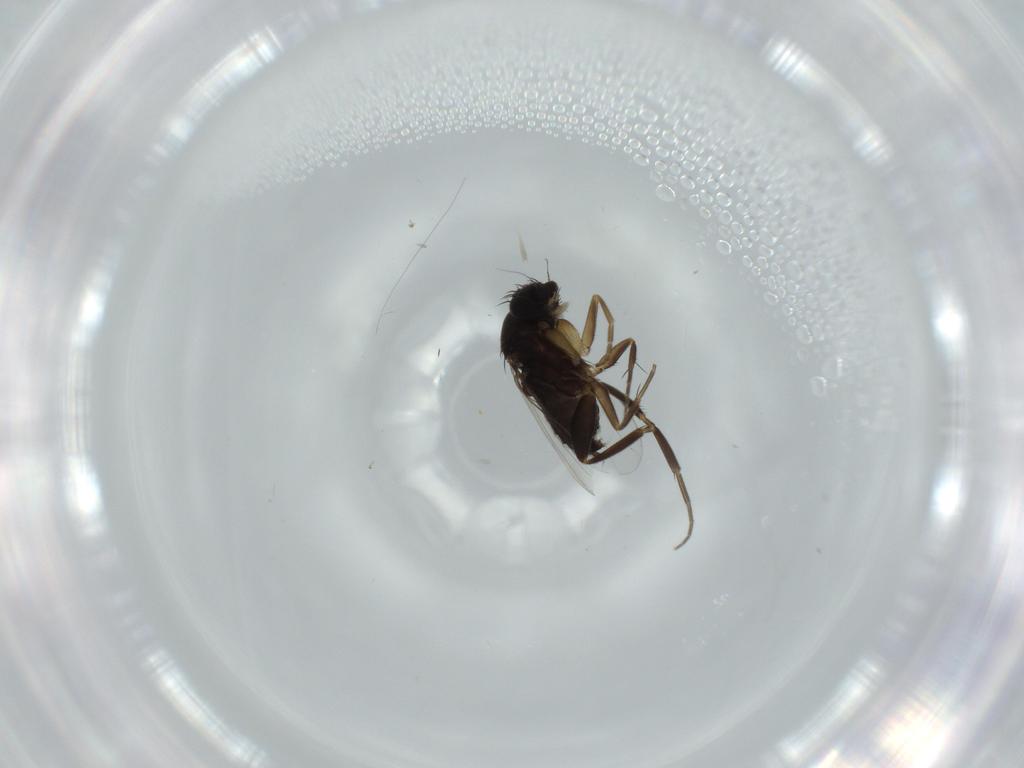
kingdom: Animalia
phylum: Arthropoda
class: Insecta
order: Diptera
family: Phoridae
